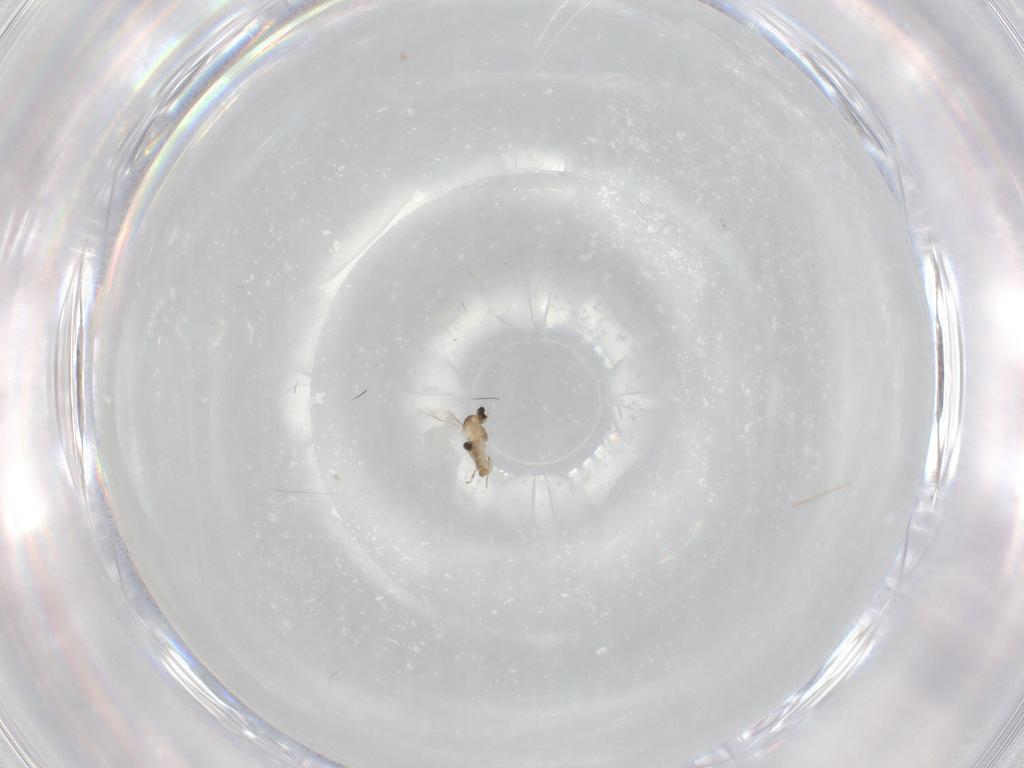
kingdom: Animalia
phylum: Arthropoda
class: Insecta
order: Diptera
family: Cecidomyiidae
